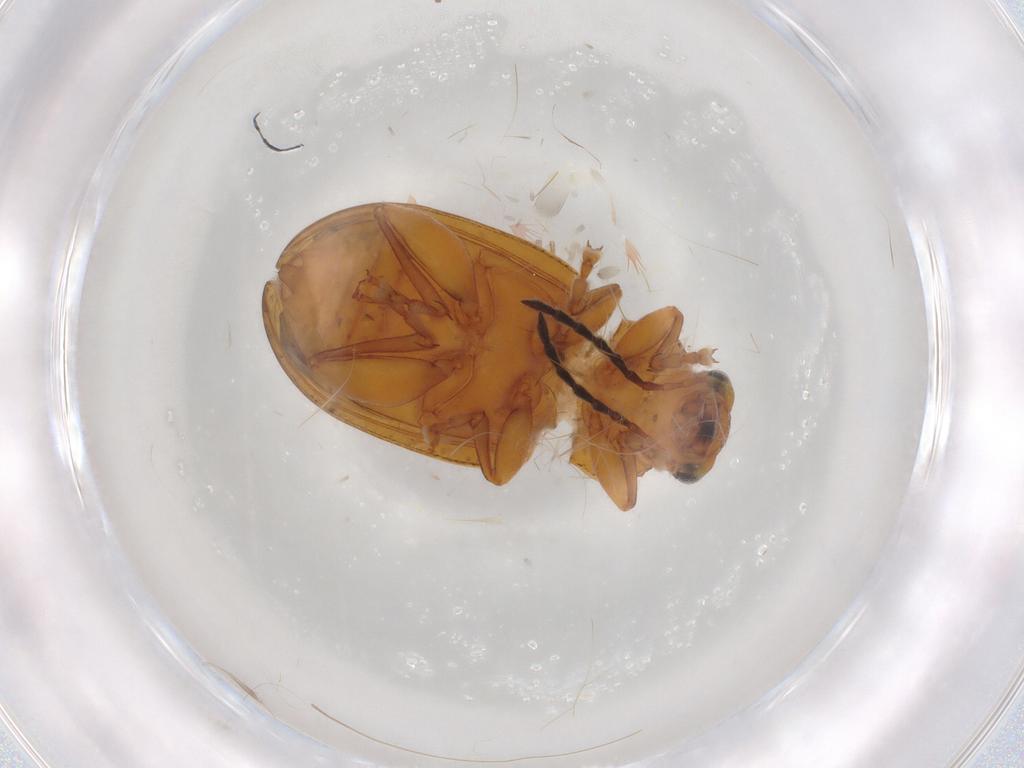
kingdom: Animalia
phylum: Arthropoda
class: Insecta
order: Coleoptera
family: Chrysomelidae
